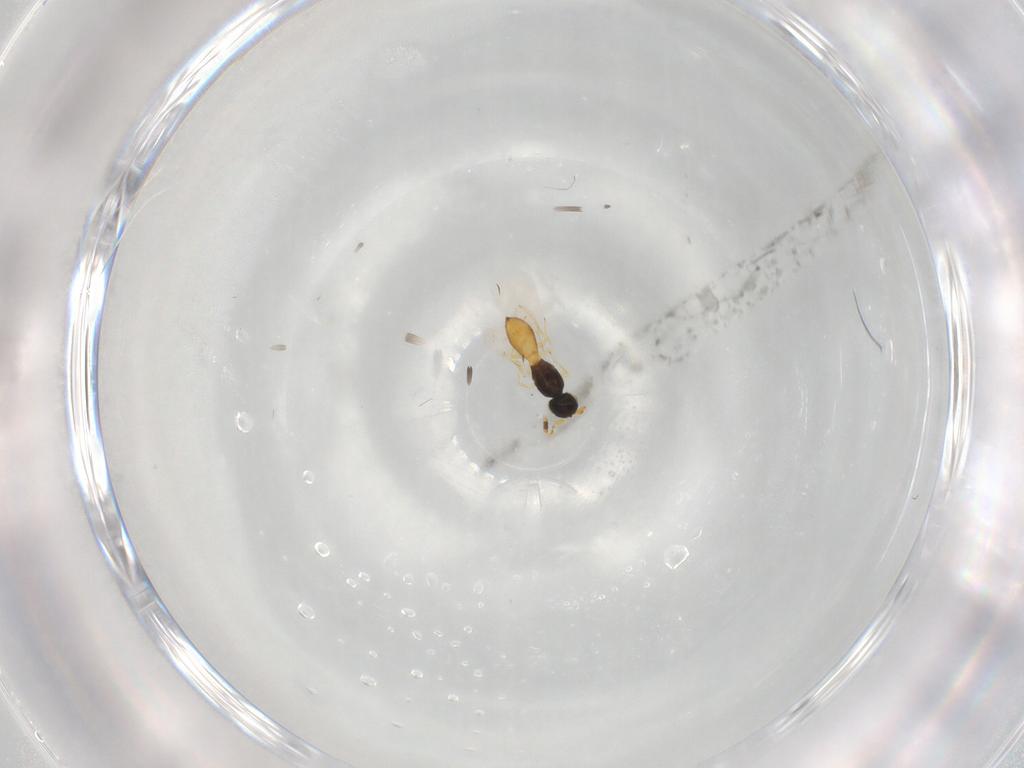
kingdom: Animalia
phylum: Arthropoda
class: Insecta
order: Hymenoptera
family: Scelionidae
